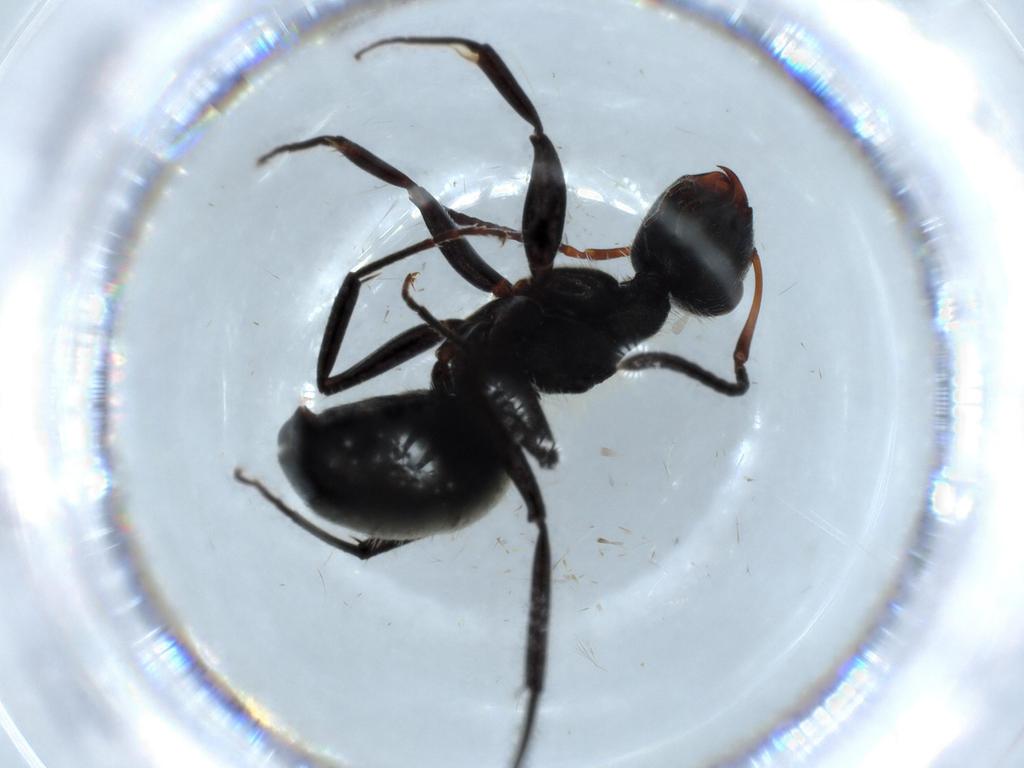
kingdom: Animalia
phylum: Arthropoda
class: Insecta
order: Hymenoptera
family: Formicidae
